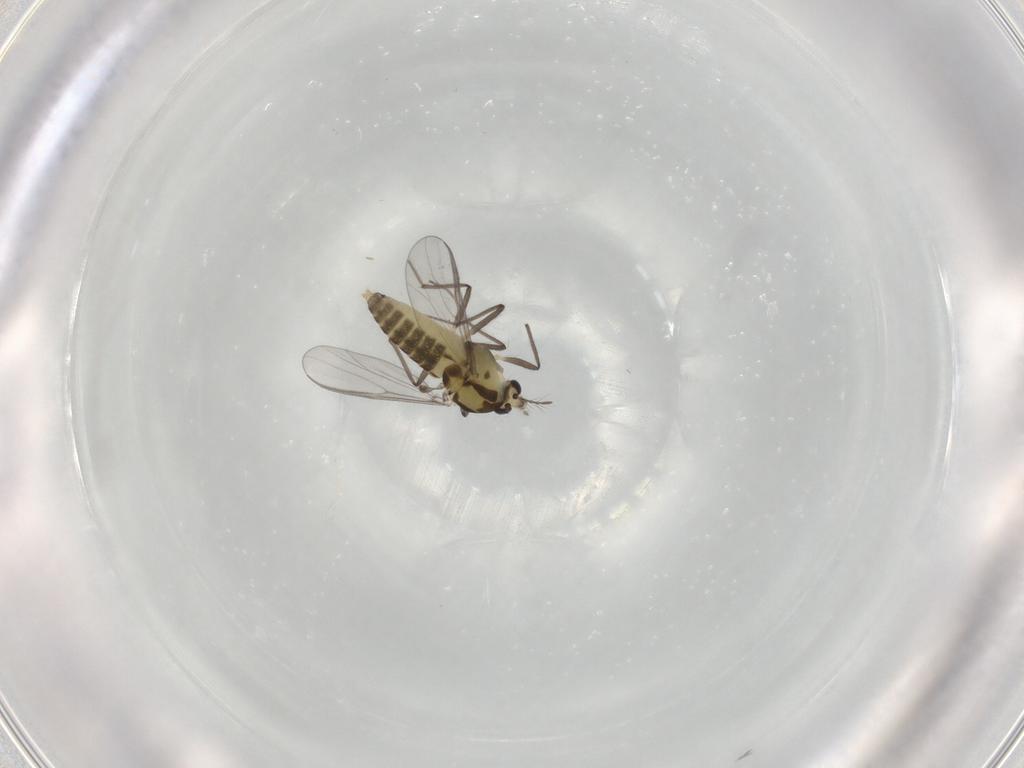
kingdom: Animalia
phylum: Arthropoda
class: Insecta
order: Diptera
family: Chironomidae
